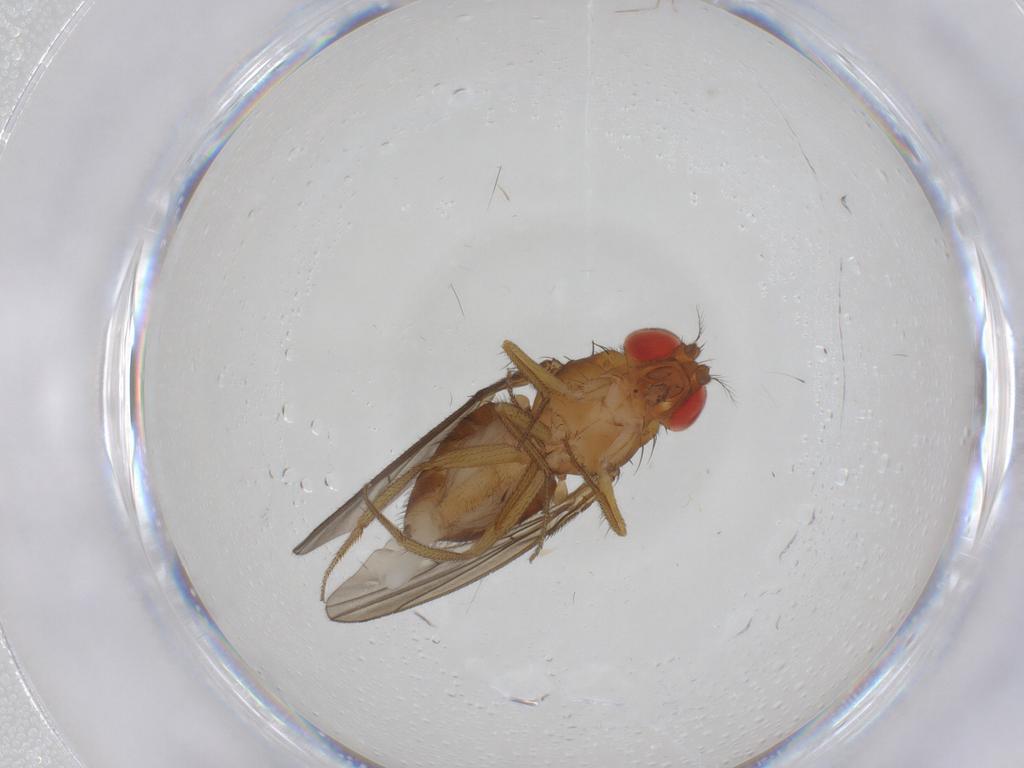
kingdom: Animalia
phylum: Arthropoda
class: Insecta
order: Diptera
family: Drosophilidae
